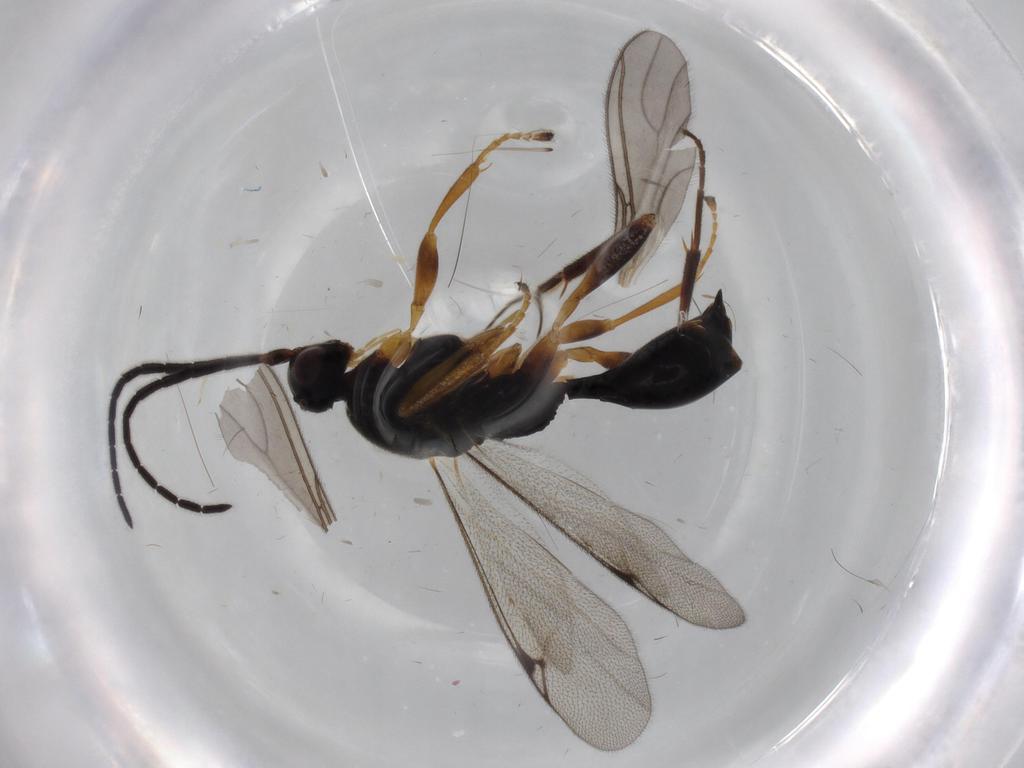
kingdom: Animalia
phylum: Arthropoda
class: Insecta
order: Hymenoptera
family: Proctotrupidae
